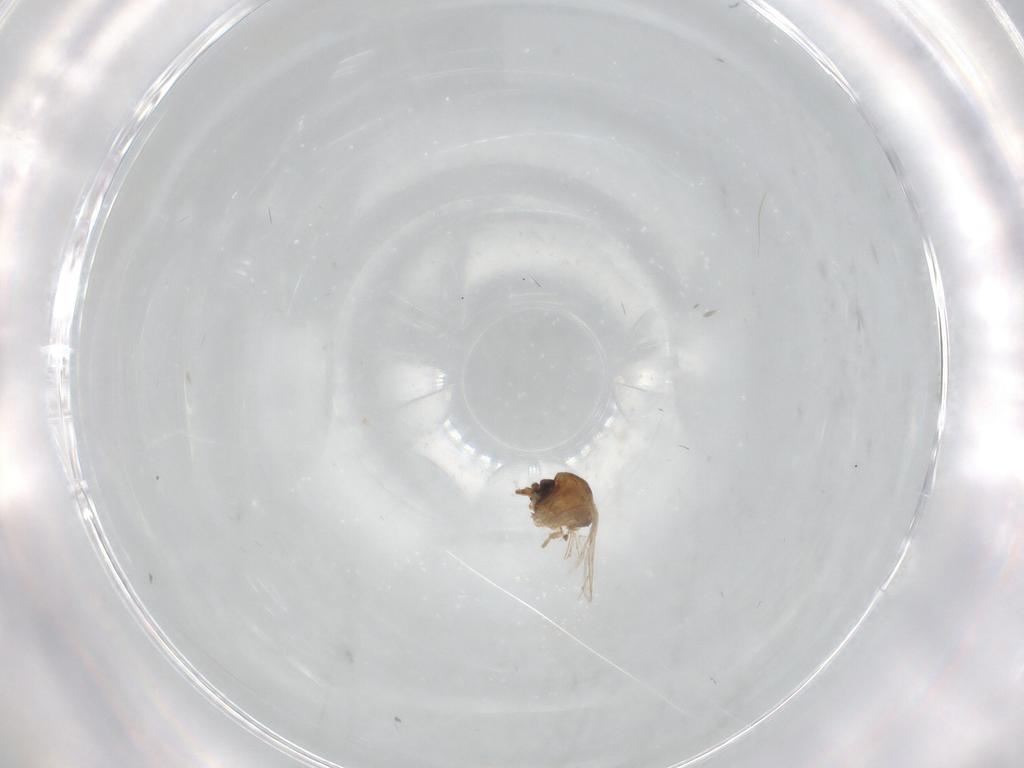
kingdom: Animalia
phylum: Arthropoda
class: Insecta
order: Diptera
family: Ceratopogonidae
